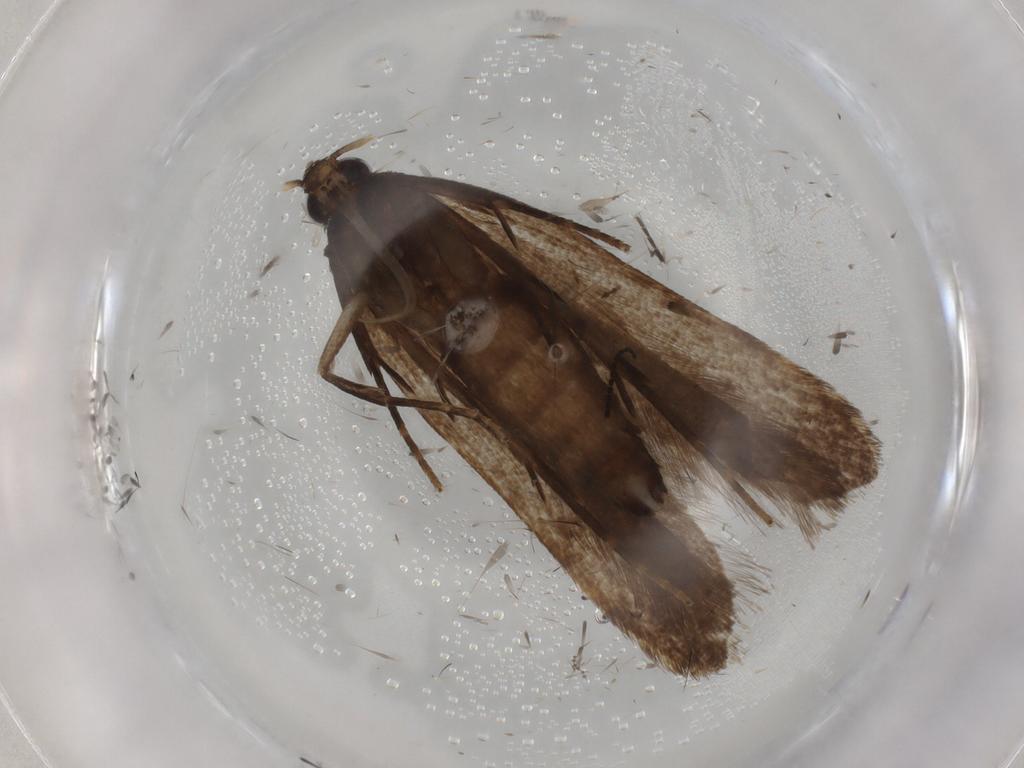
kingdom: Animalia
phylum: Arthropoda
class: Insecta
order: Lepidoptera
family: Gelechiidae
